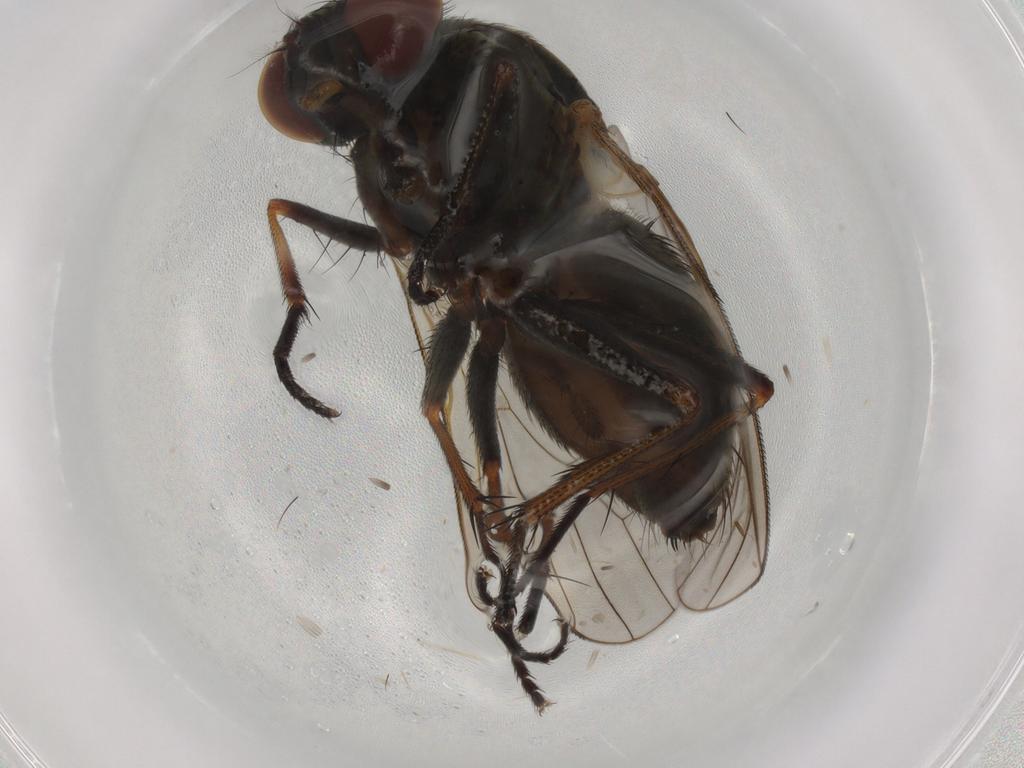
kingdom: Animalia
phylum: Arthropoda
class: Insecta
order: Diptera
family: Muscidae
